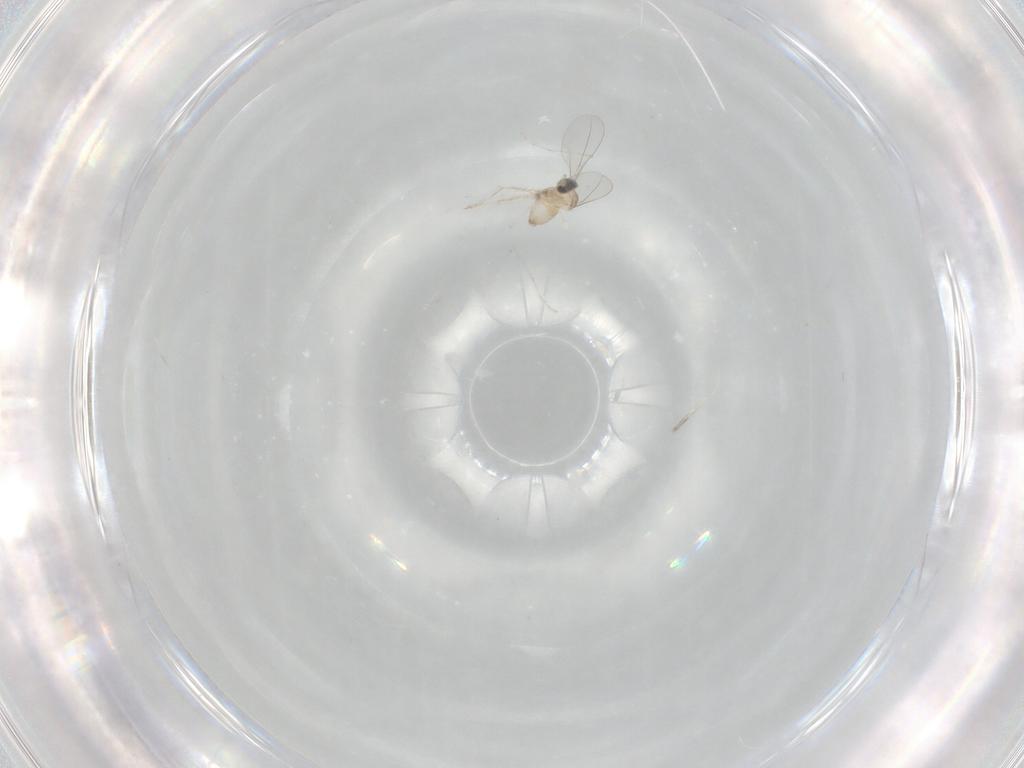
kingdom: Animalia
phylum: Arthropoda
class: Insecta
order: Diptera
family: Cecidomyiidae
